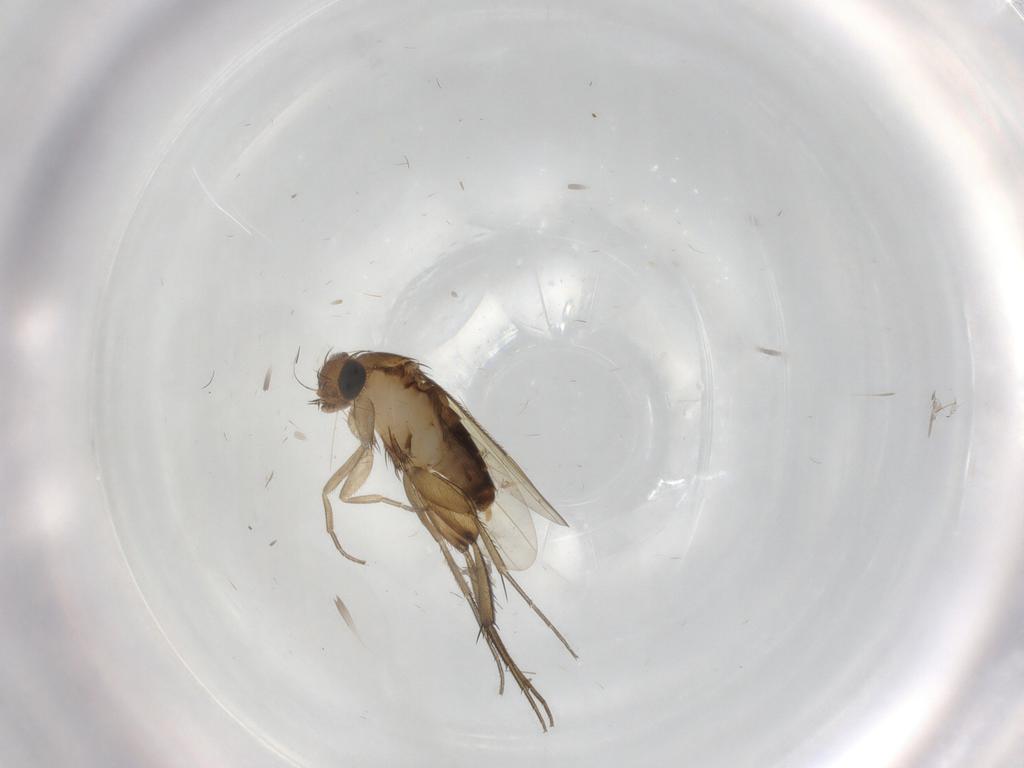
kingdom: Animalia
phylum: Arthropoda
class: Insecta
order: Diptera
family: Phoridae
